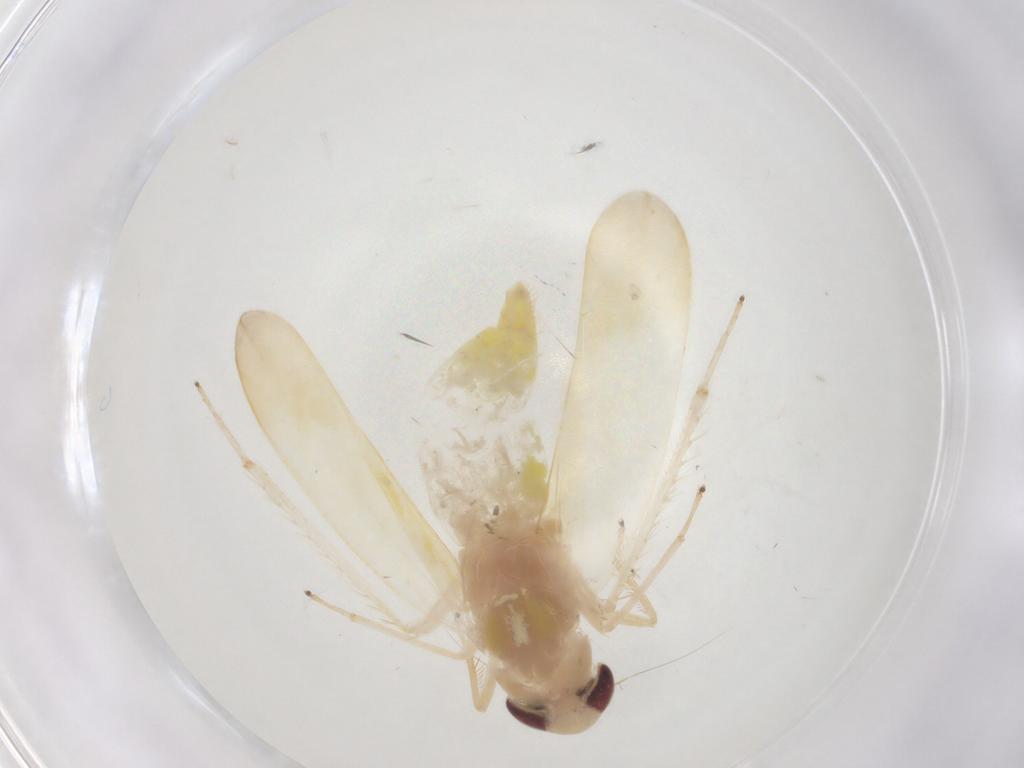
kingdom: Animalia
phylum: Arthropoda
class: Insecta
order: Hemiptera
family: Cicadellidae
